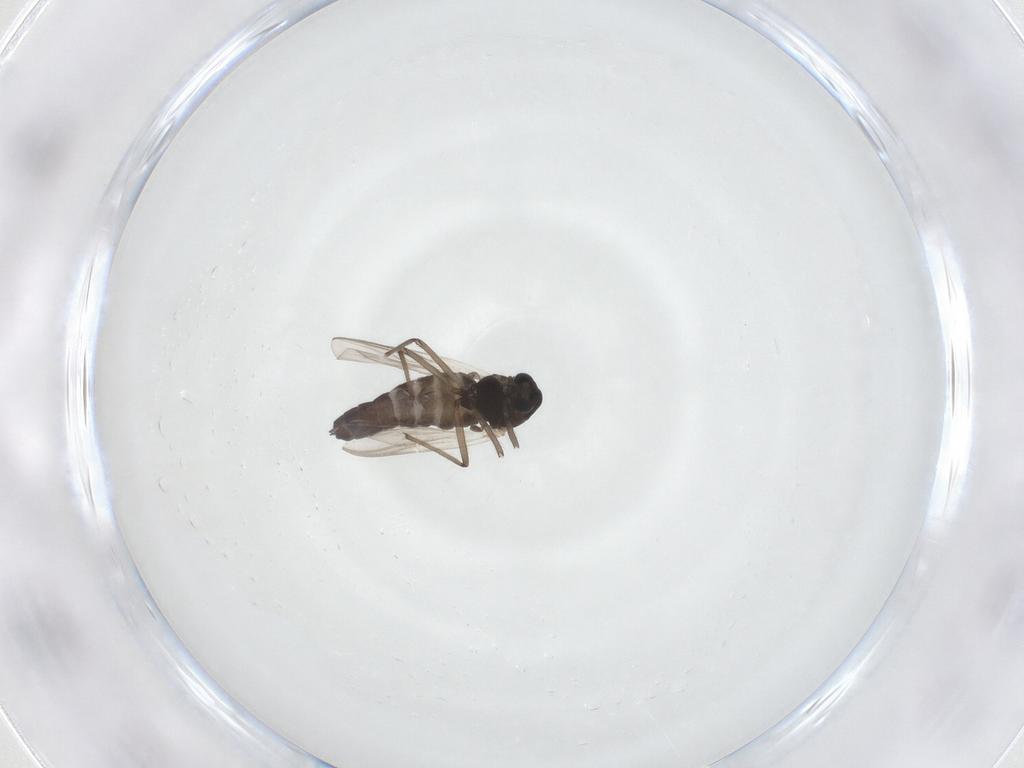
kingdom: Animalia
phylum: Arthropoda
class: Insecta
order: Diptera
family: Chironomidae
